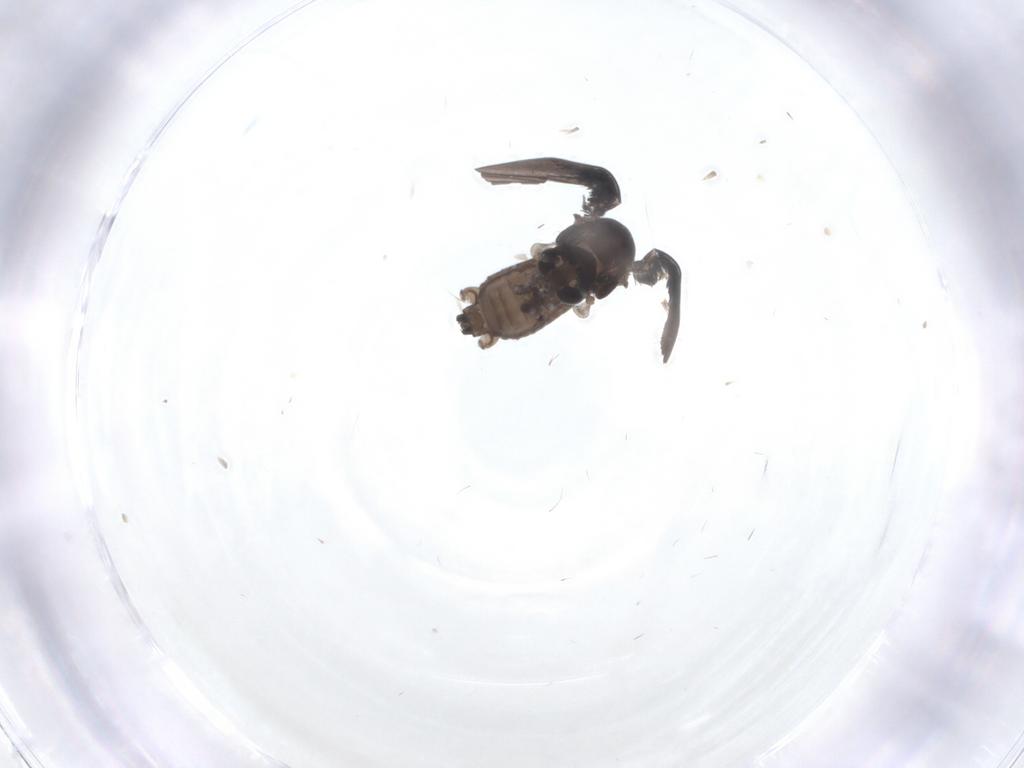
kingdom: Animalia
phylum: Arthropoda
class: Insecta
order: Diptera
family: Psychodidae
